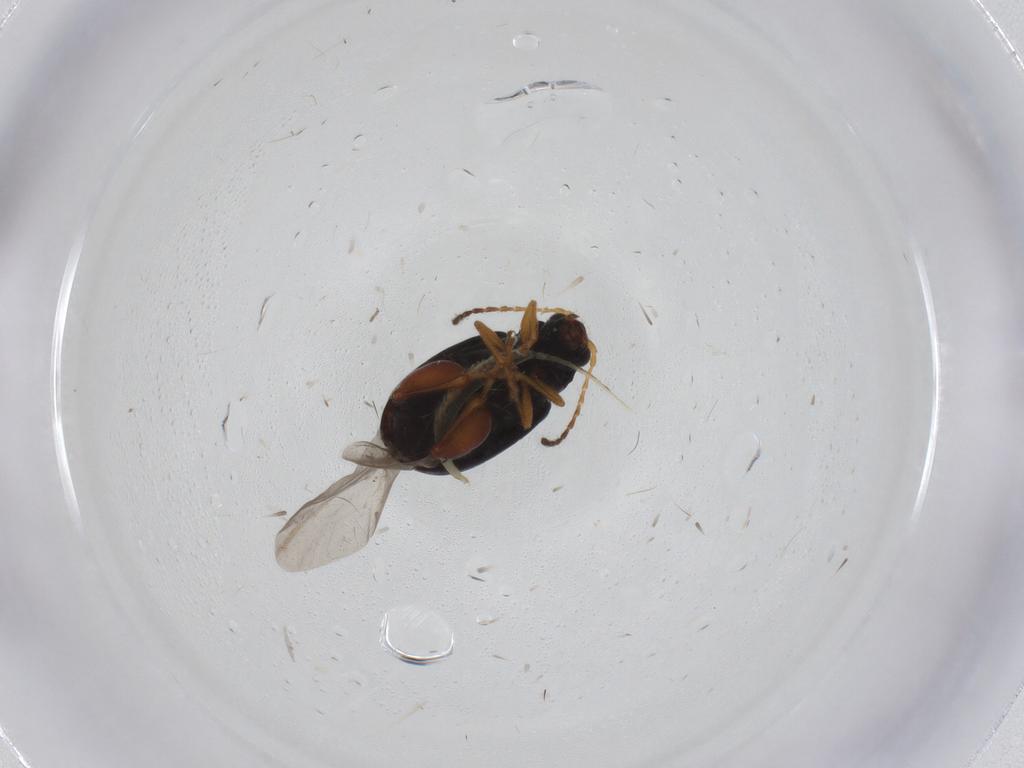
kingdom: Animalia
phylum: Arthropoda
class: Insecta
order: Coleoptera
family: Chrysomelidae
